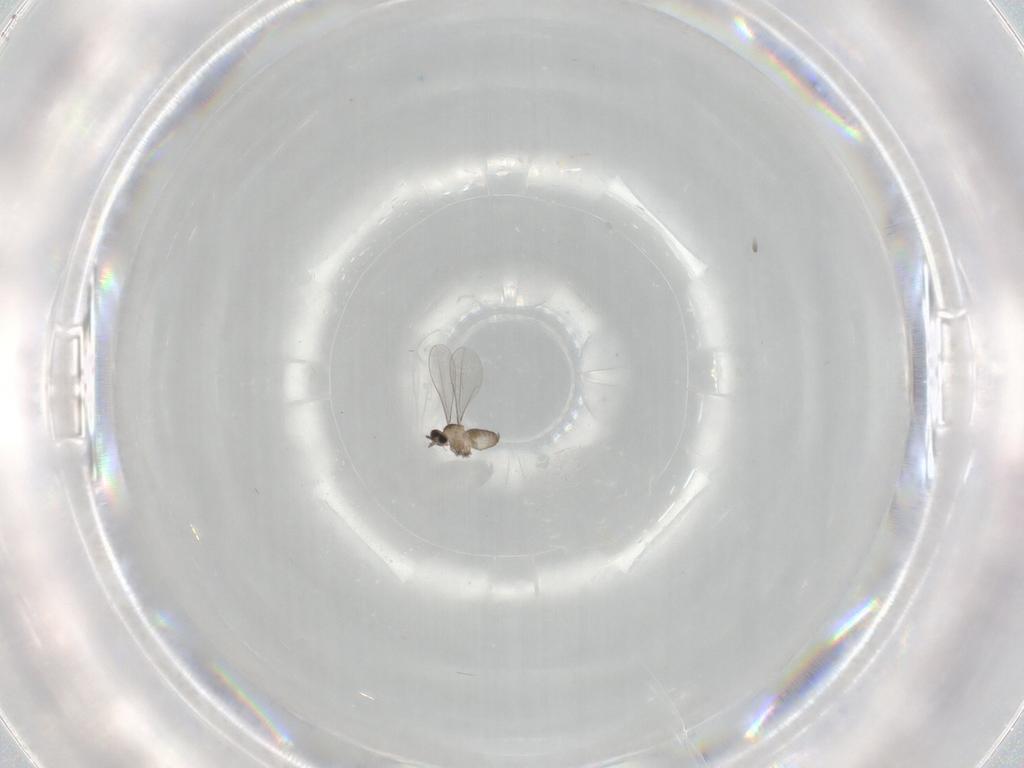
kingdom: Animalia
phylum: Arthropoda
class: Insecta
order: Diptera
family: Cecidomyiidae
